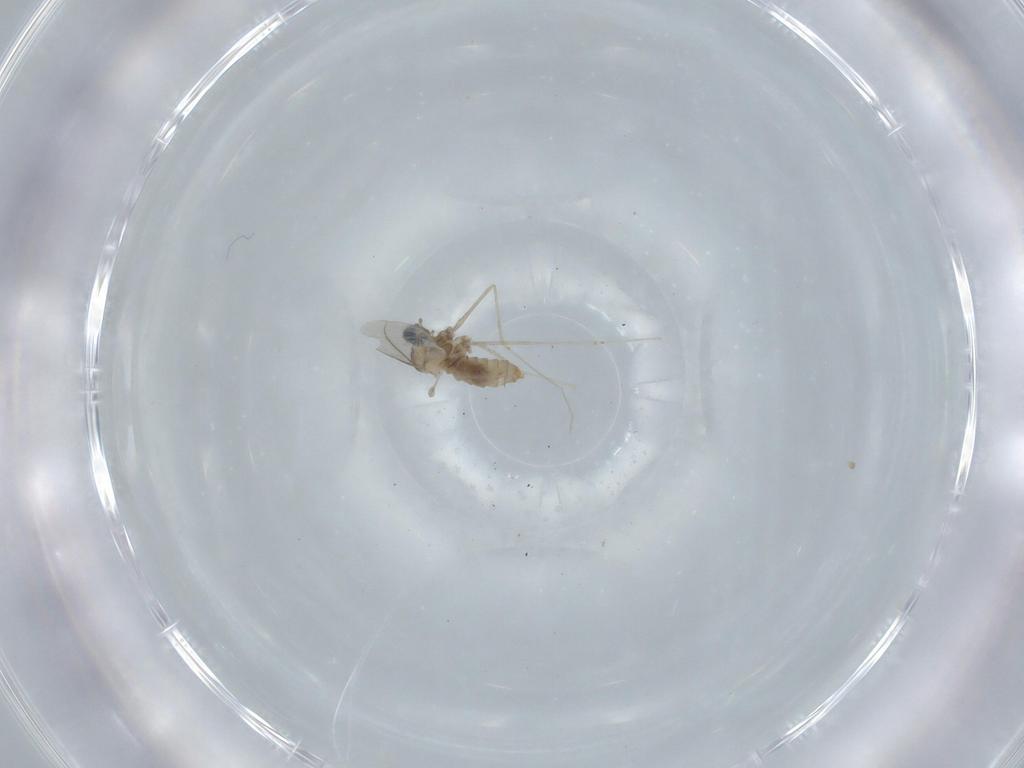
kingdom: Animalia
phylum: Arthropoda
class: Insecta
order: Diptera
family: Cecidomyiidae
